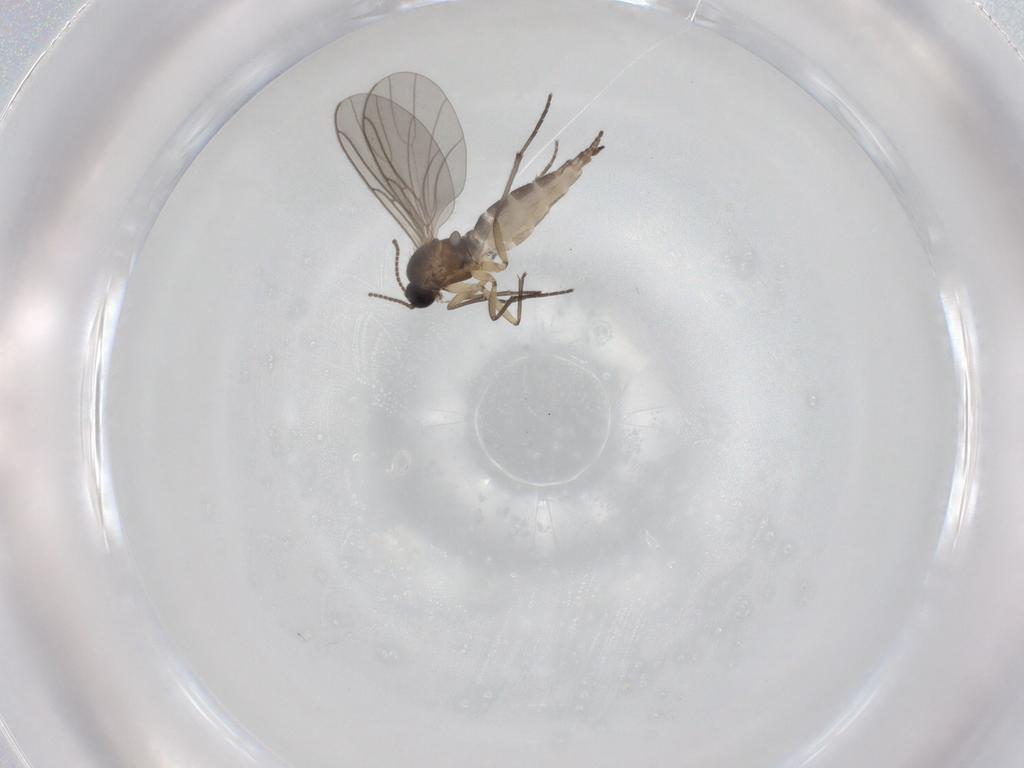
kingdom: Animalia
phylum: Arthropoda
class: Insecta
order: Diptera
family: Sciaridae
